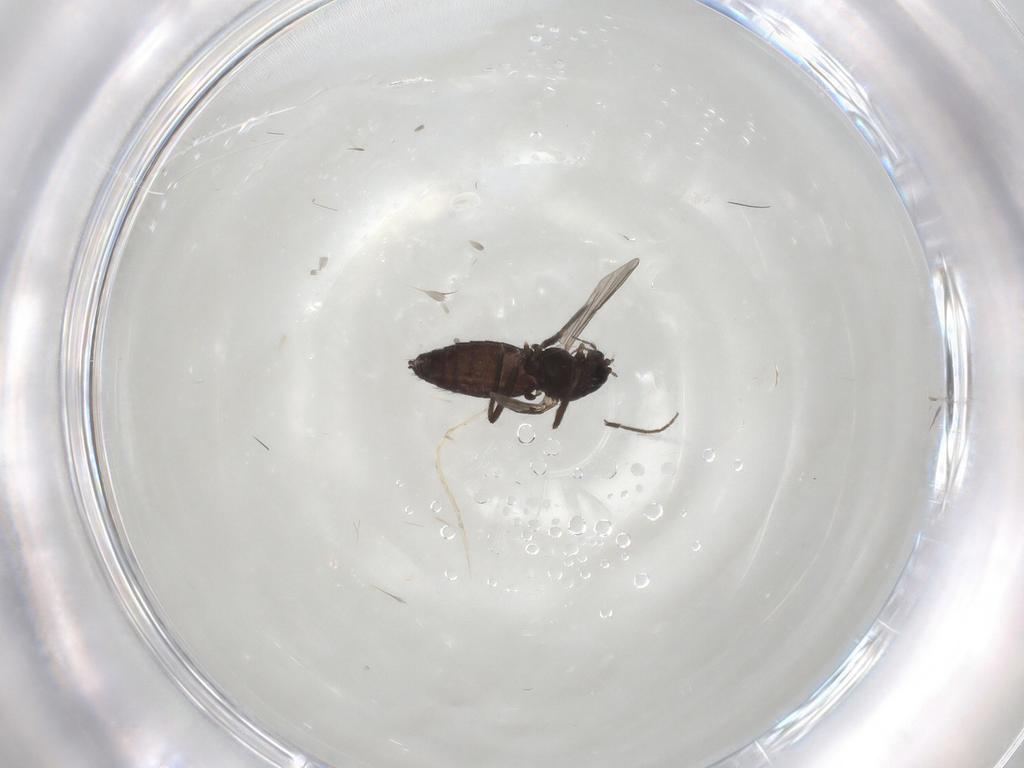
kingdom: Animalia
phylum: Arthropoda
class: Insecta
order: Diptera
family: Chironomidae
